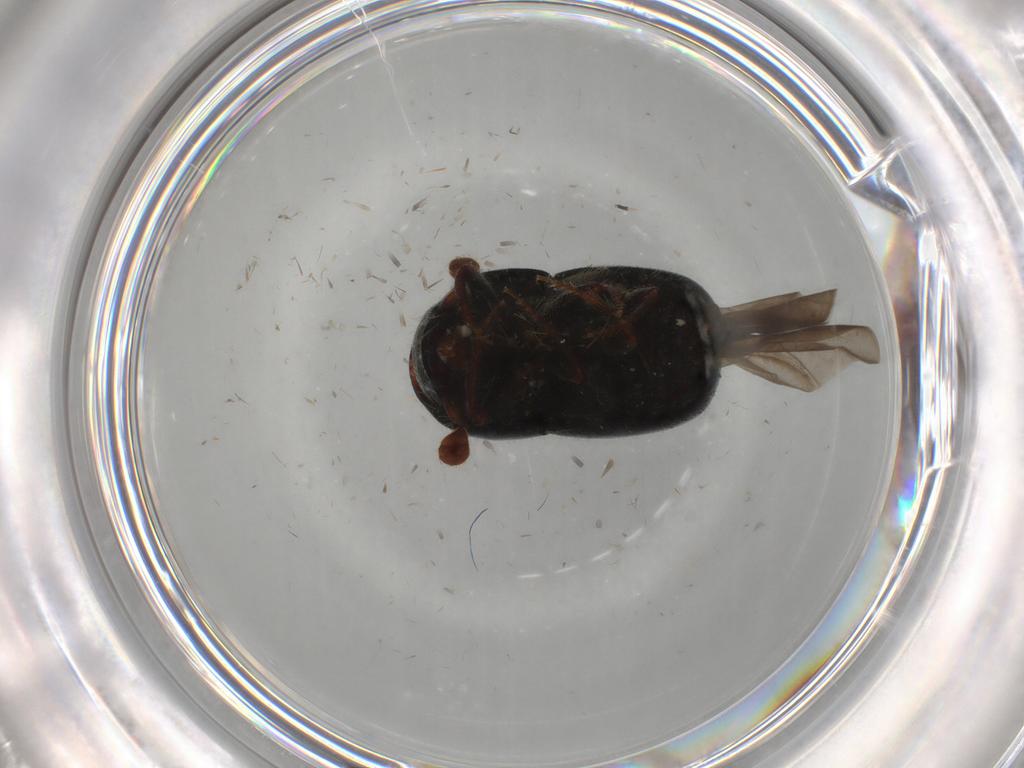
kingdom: Animalia
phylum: Arthropoda
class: Insecta
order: Coleoptera
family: Curculionidae
